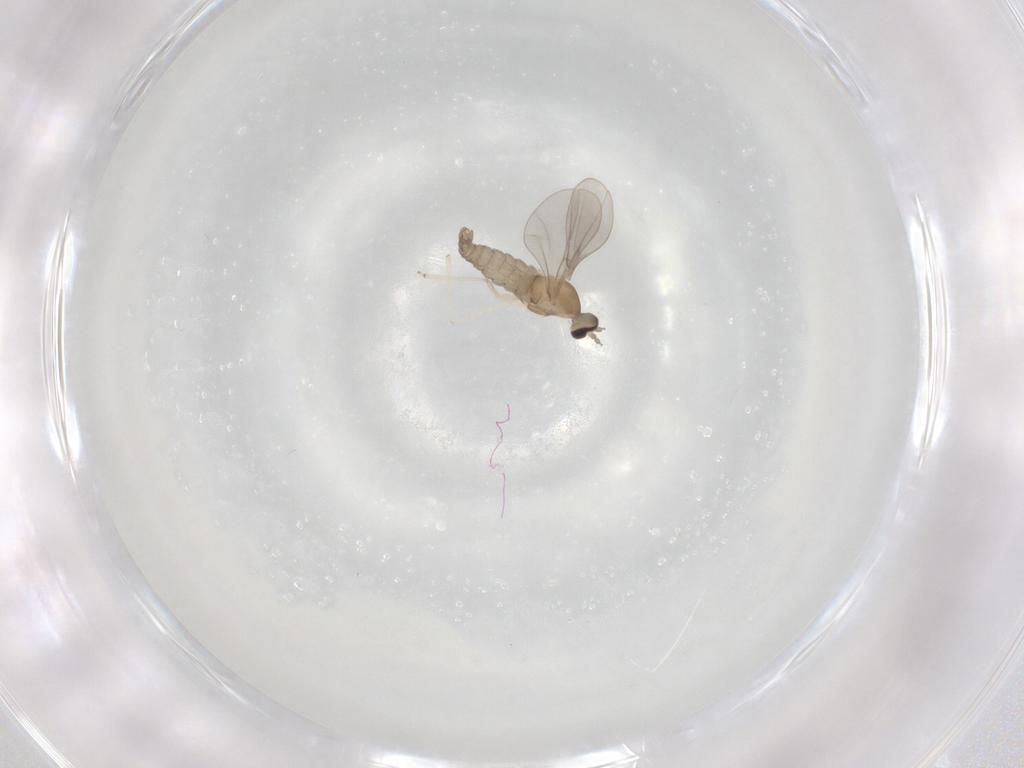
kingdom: Animalia
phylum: Arthropoda
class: Insecta
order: Diptera
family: Cecidomyiidae
